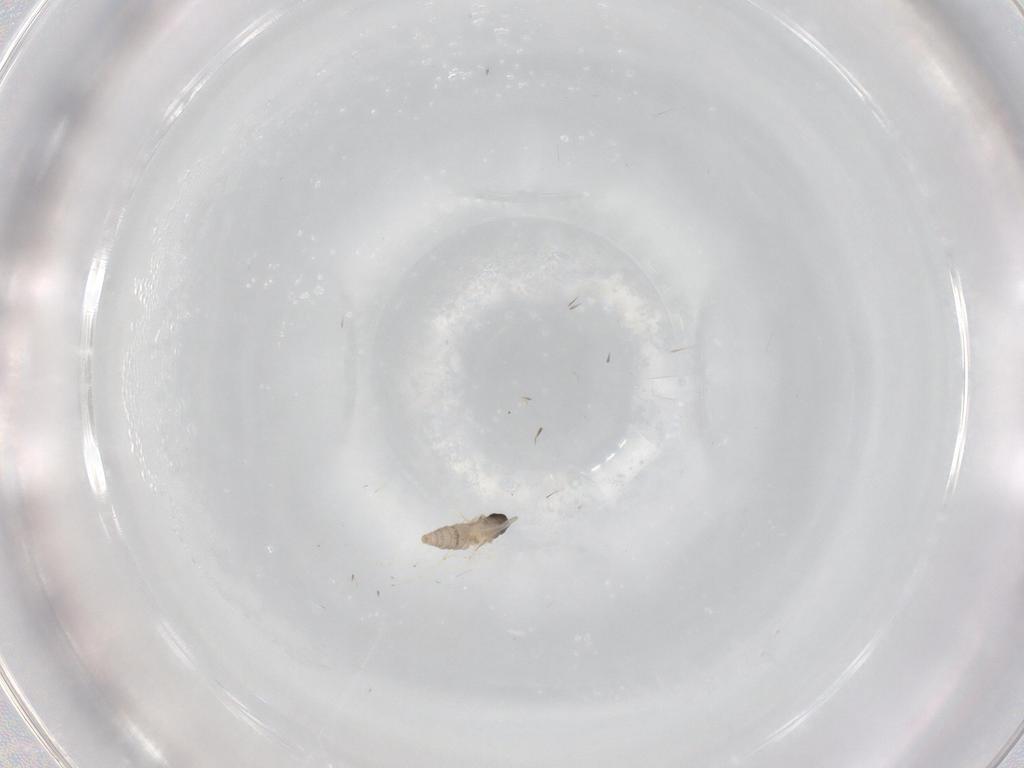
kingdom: Animalia
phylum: Arthropoda
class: Insecta
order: Diptera
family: Cecidomyiidae
